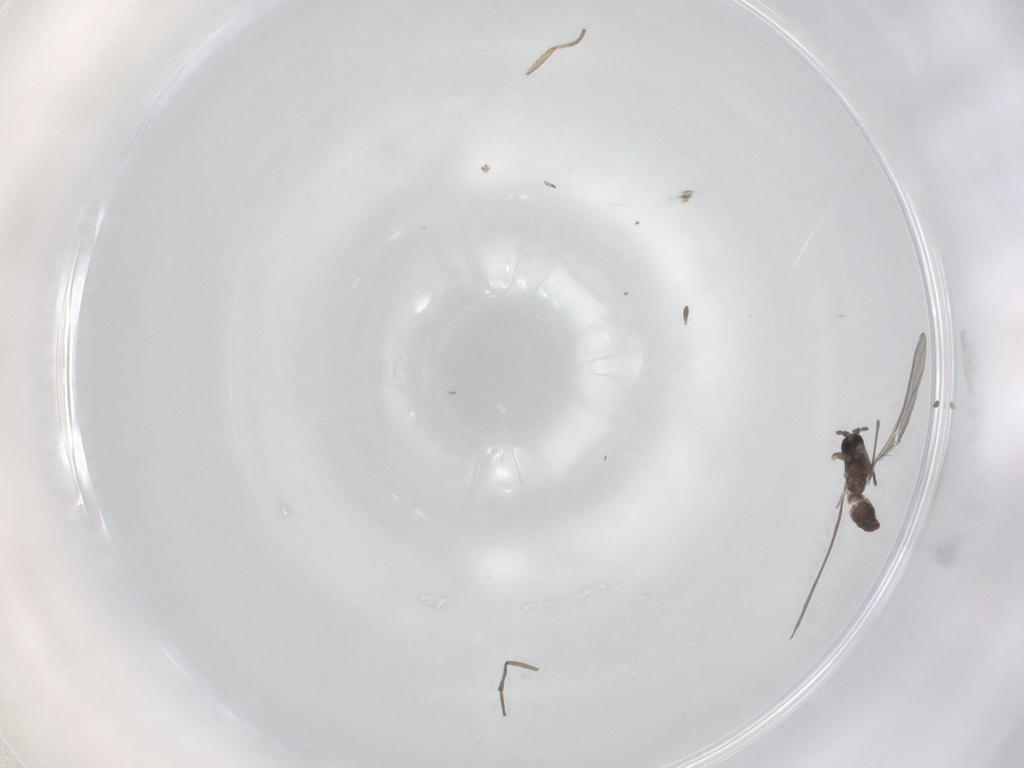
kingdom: Animalia
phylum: Arthropoda
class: Insecta
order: Diptera
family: Sciaridae
